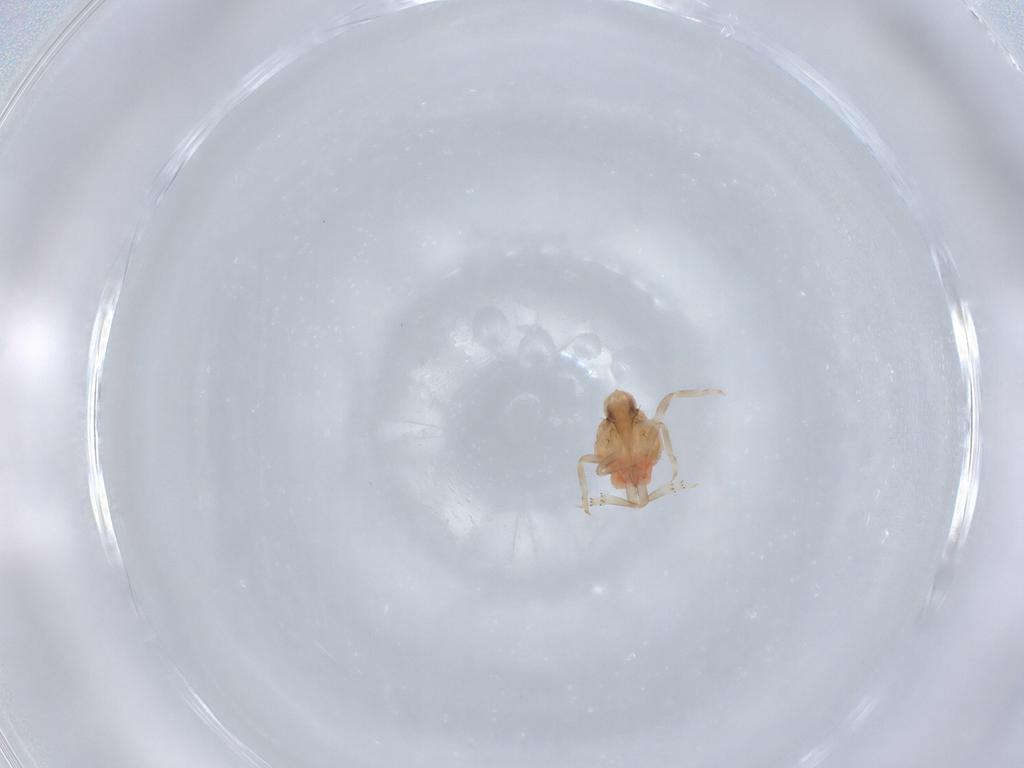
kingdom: Animalia
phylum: Arthropoda
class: Insecta
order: Hemiptera
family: Flatidae
